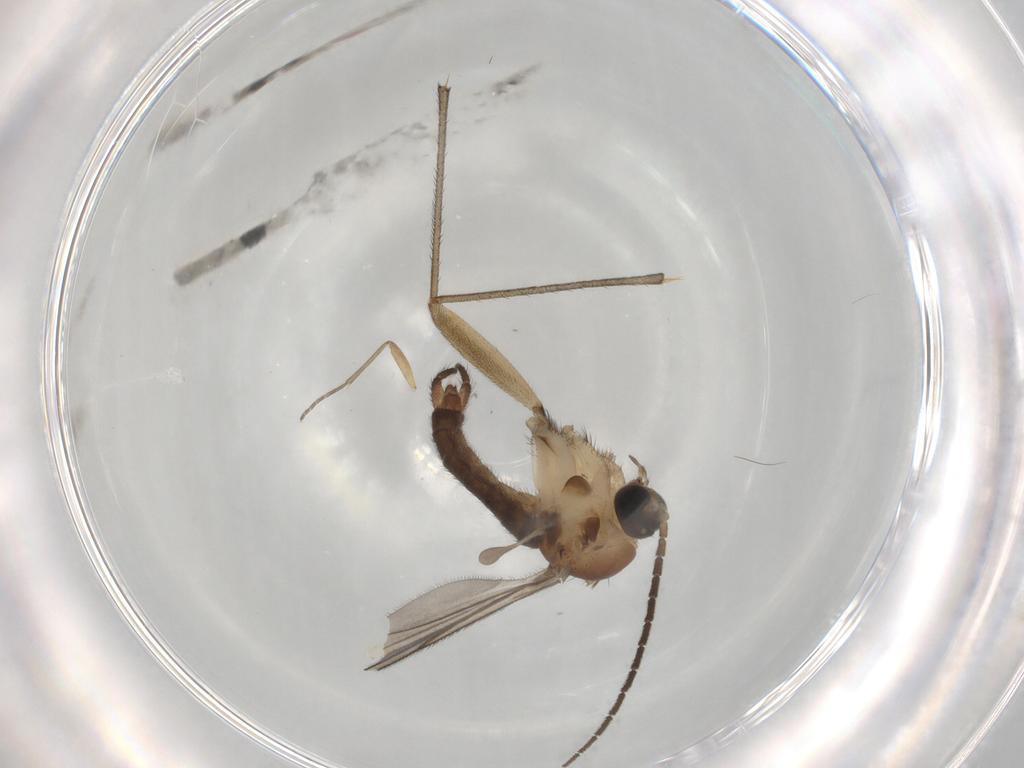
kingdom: Animalia
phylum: Arthropoda
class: Insecta
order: Diptera
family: Sciaridae
